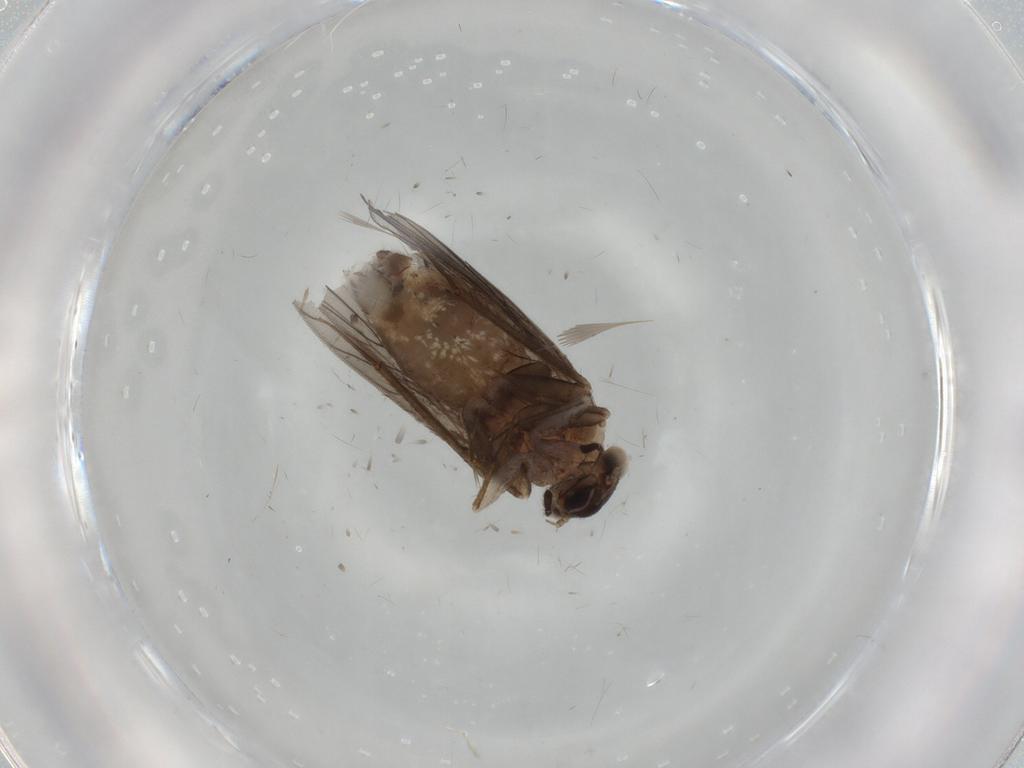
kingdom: Animalia
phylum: Arthropoda
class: Insecta
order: Psocodea
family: Lepidopsocidae
